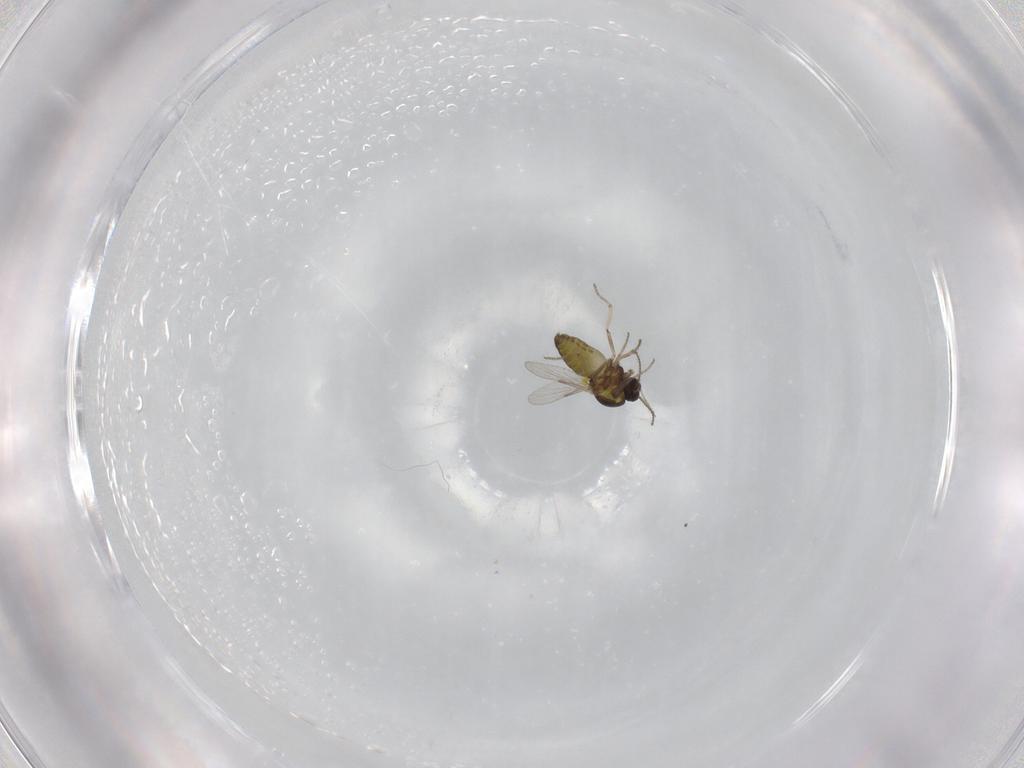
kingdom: Animalia
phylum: Arthropoda
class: Insecta
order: Diptera
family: Ceratopogonidae
